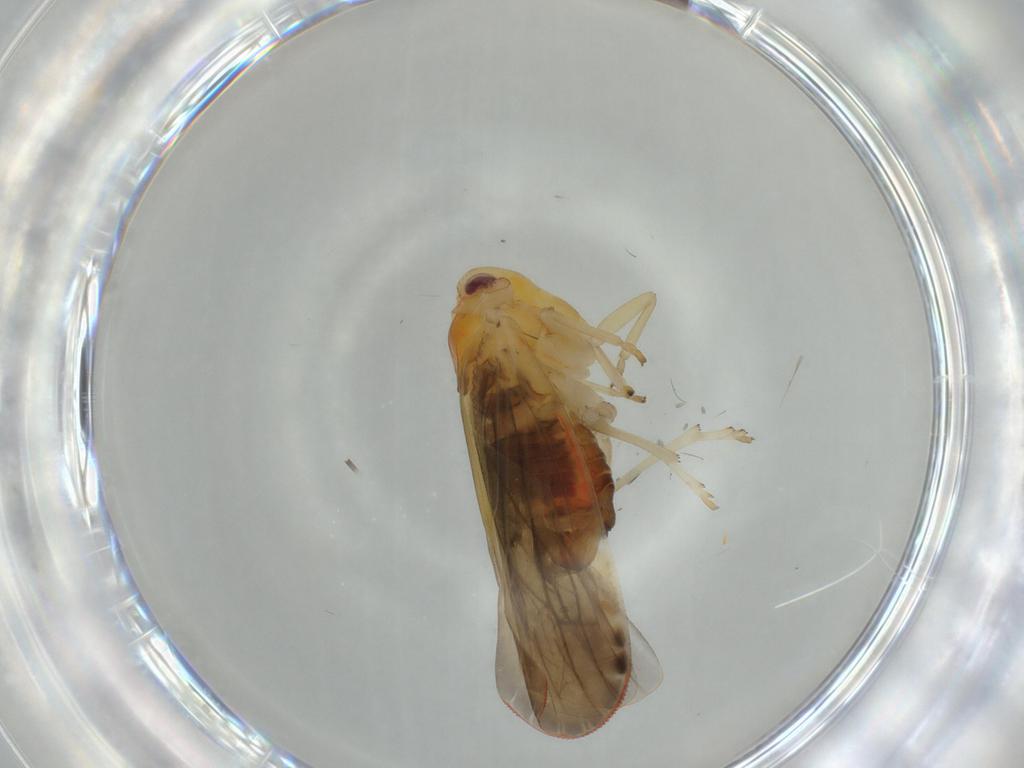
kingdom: Animalia
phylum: Arthropoda
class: Insecta
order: Hemiptera
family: Derbidae
